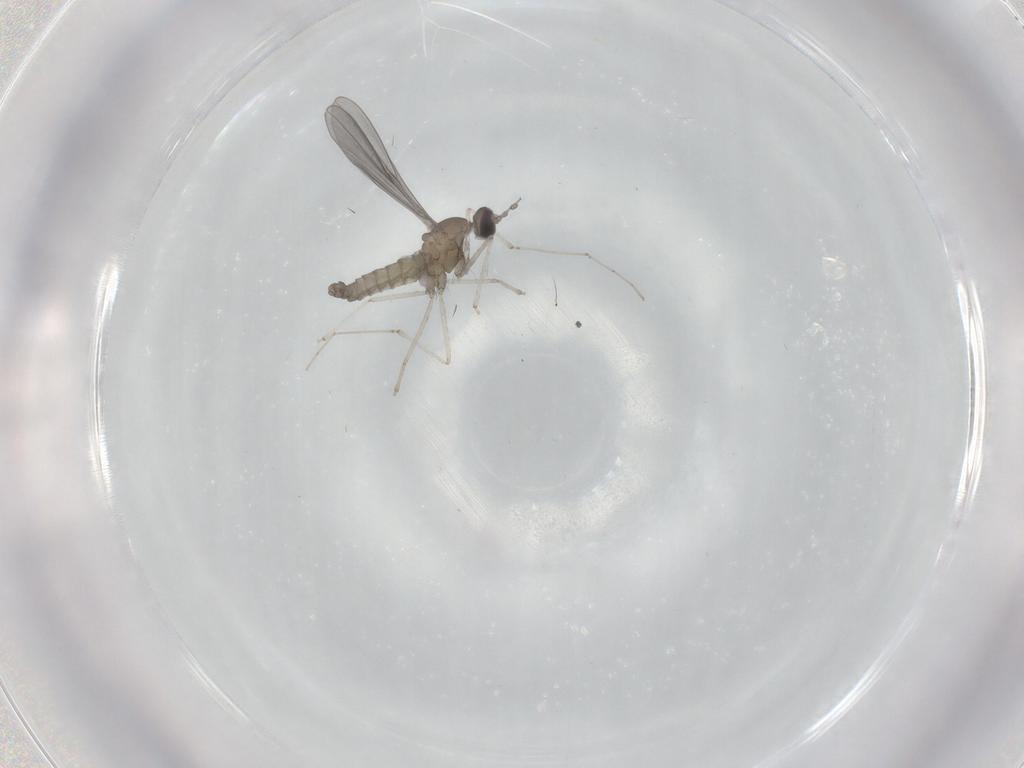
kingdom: Animalia
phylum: Arthropoda
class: Insecta
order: Diptera
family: Cecidomyiidae
